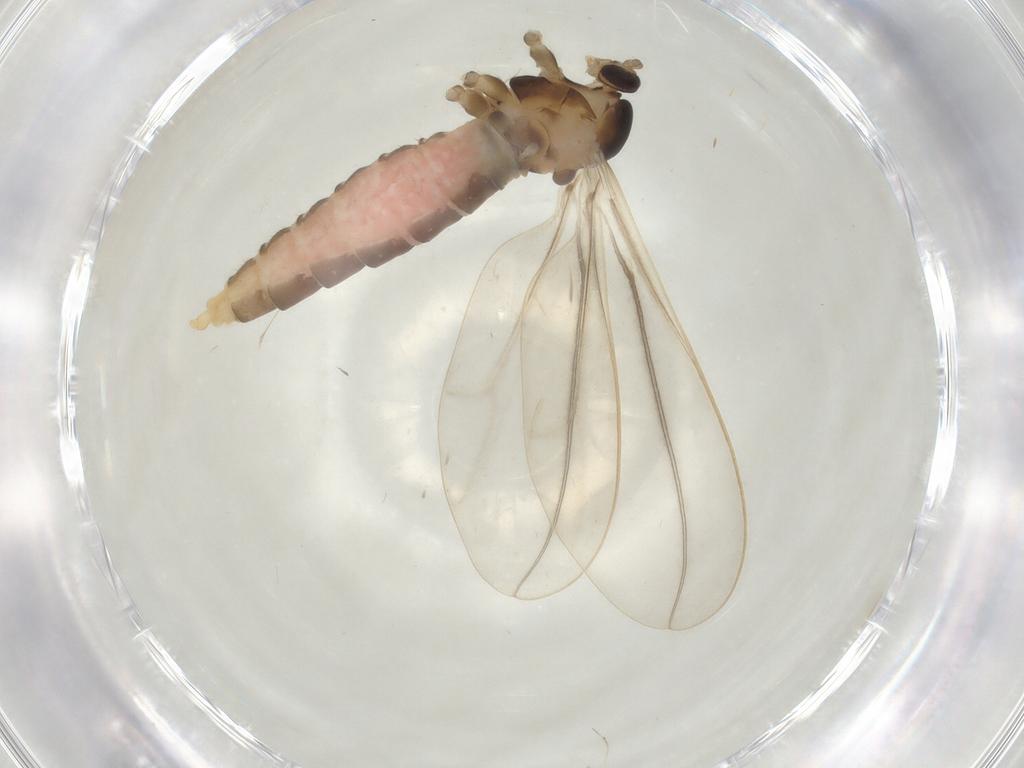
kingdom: Animalia
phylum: Arthropoda
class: Insecta
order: Diptera
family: Cecidomyiidae
